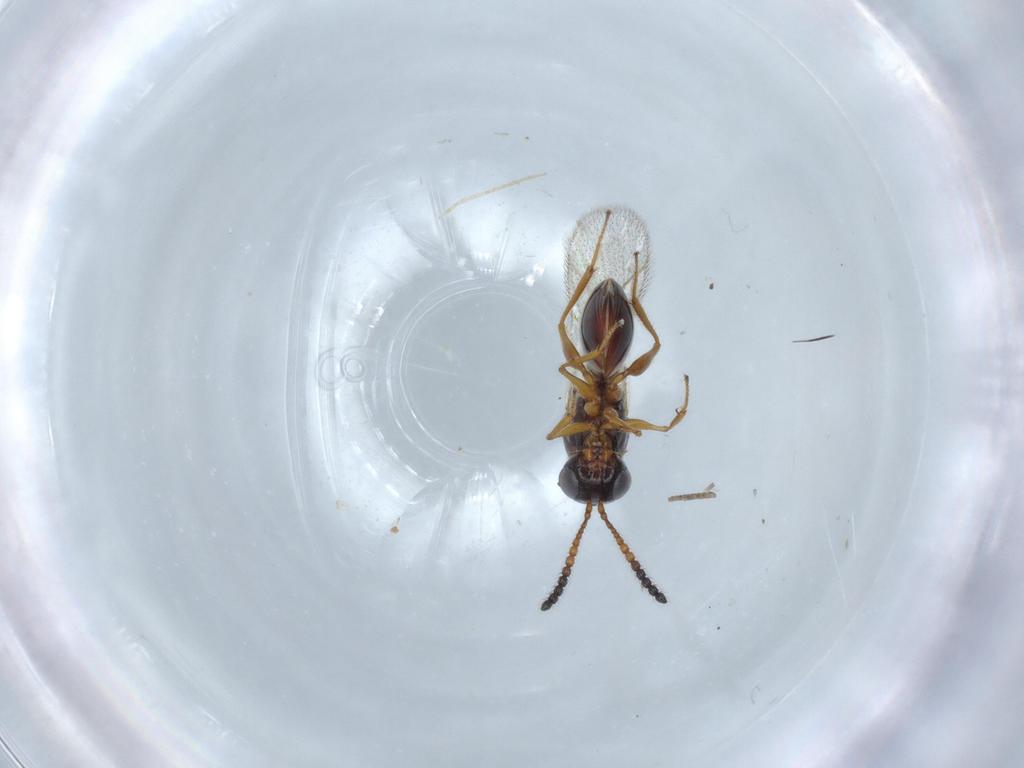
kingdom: Animalia
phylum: Arthropoda
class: Insecta
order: Hymenoptera
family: Figitidae
